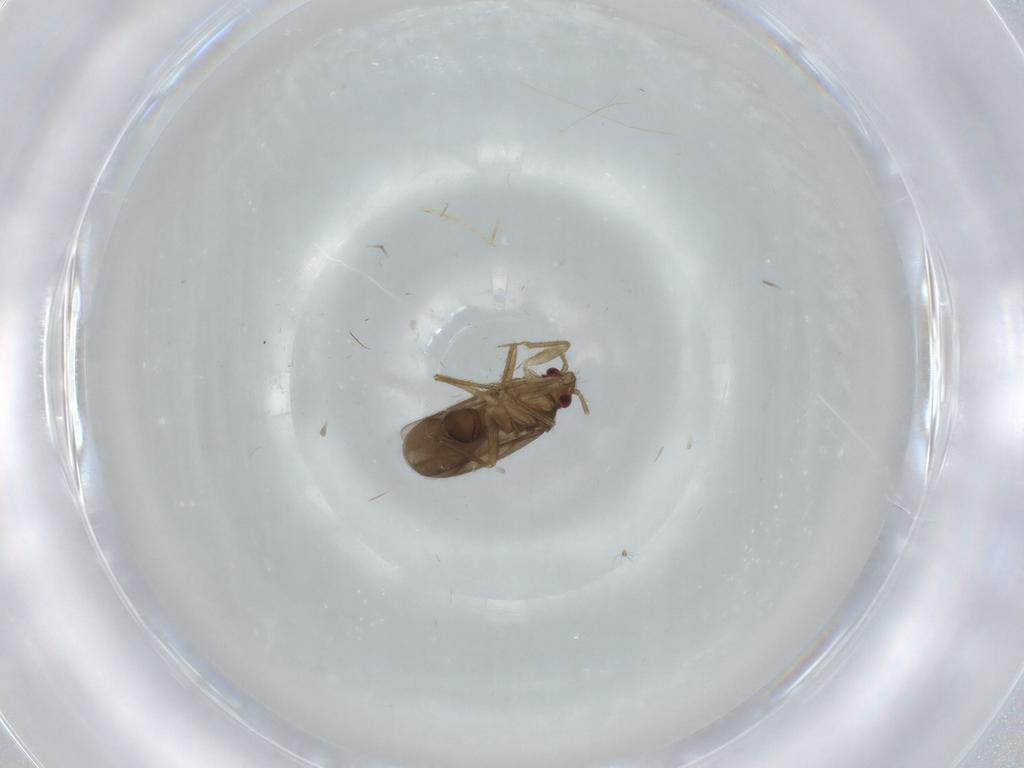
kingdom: Animalia
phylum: Arthropoda
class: Insecta
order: Hemiptera
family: Ceratocombidae
